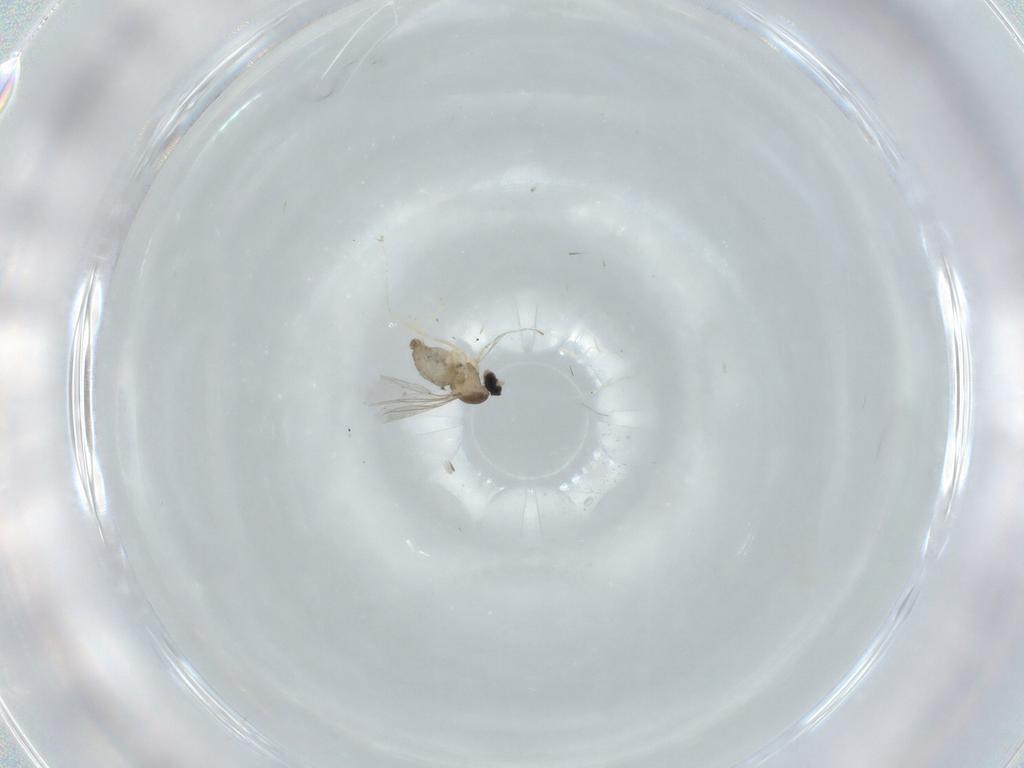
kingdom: Animalia
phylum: Arthropoda
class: Insecta
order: Diptera
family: Cecidomyiidae
